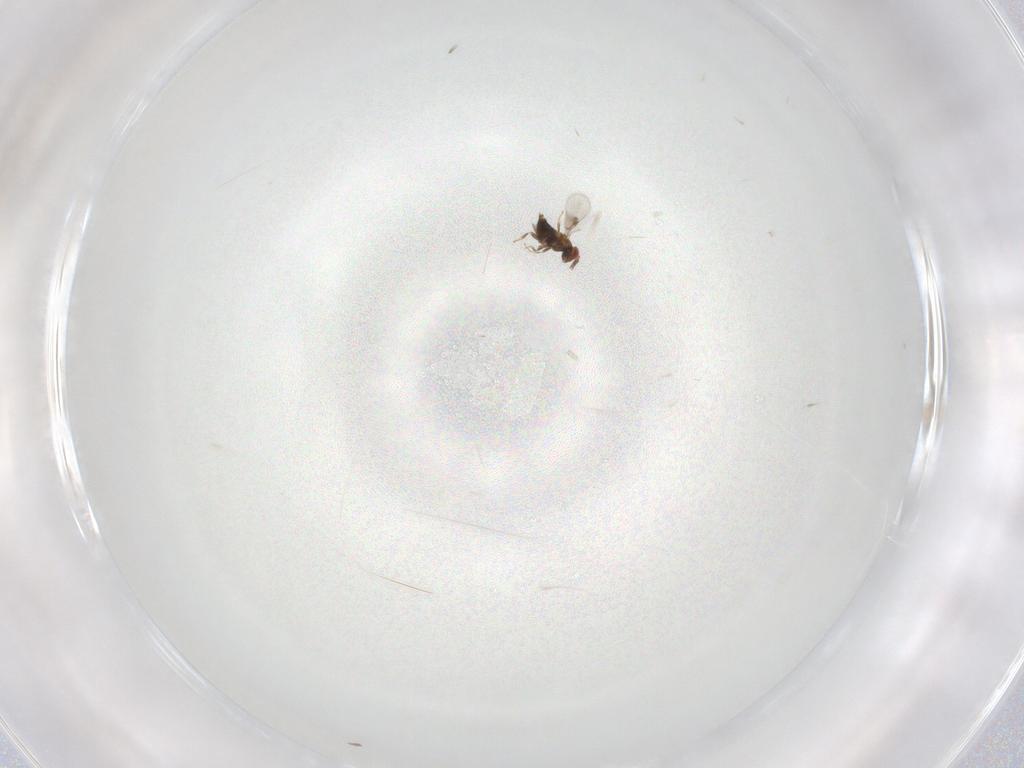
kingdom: Animalia
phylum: Arthropoda
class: Insecta
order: Hymenoptera
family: Trichogrammatidae
